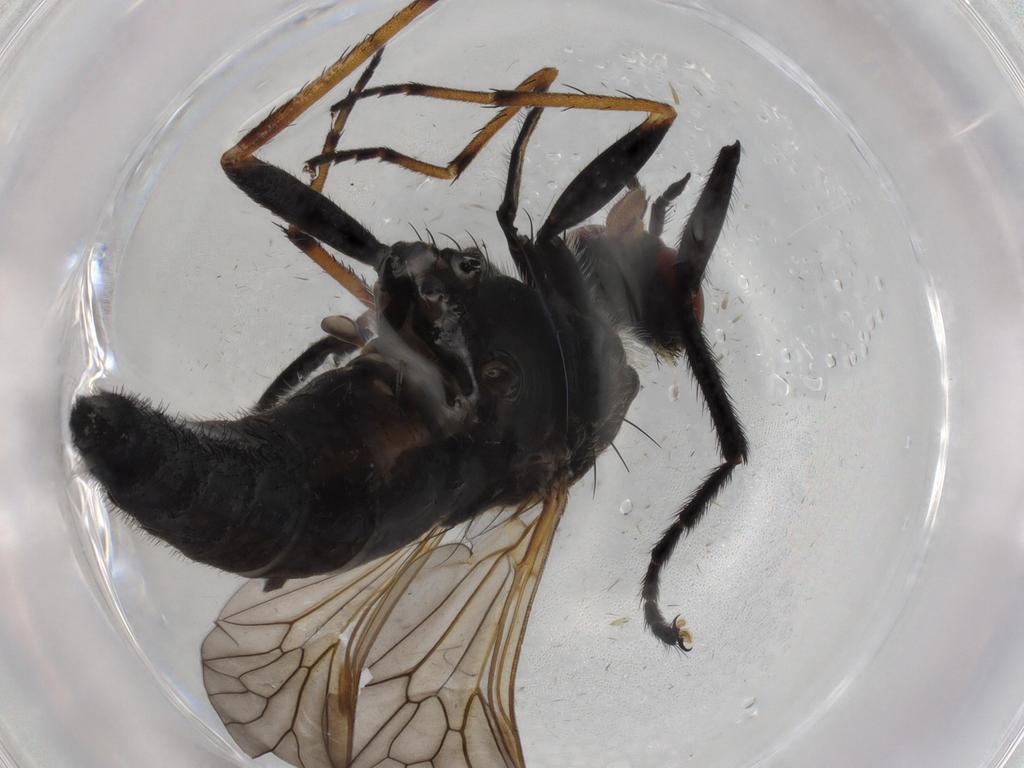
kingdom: Animalia
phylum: Arthropoda
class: Insecta
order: Diptera
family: Therevidae
